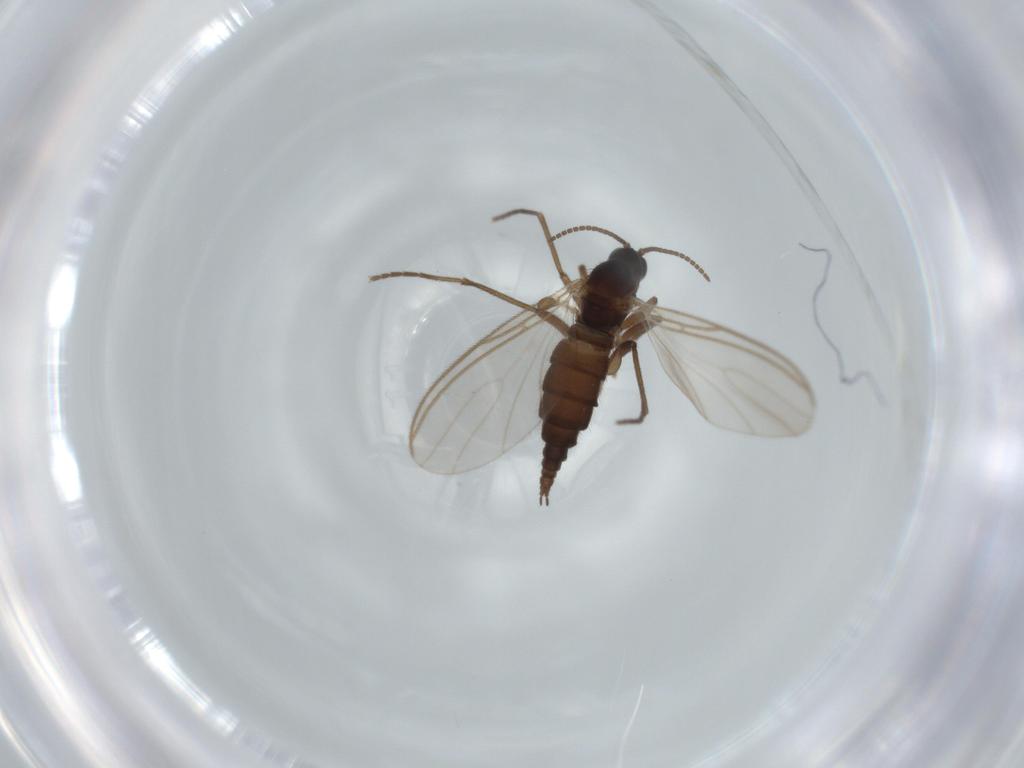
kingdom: Animalia
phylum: Arthropoda
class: Insecta
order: Diptera
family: Sciaridae
